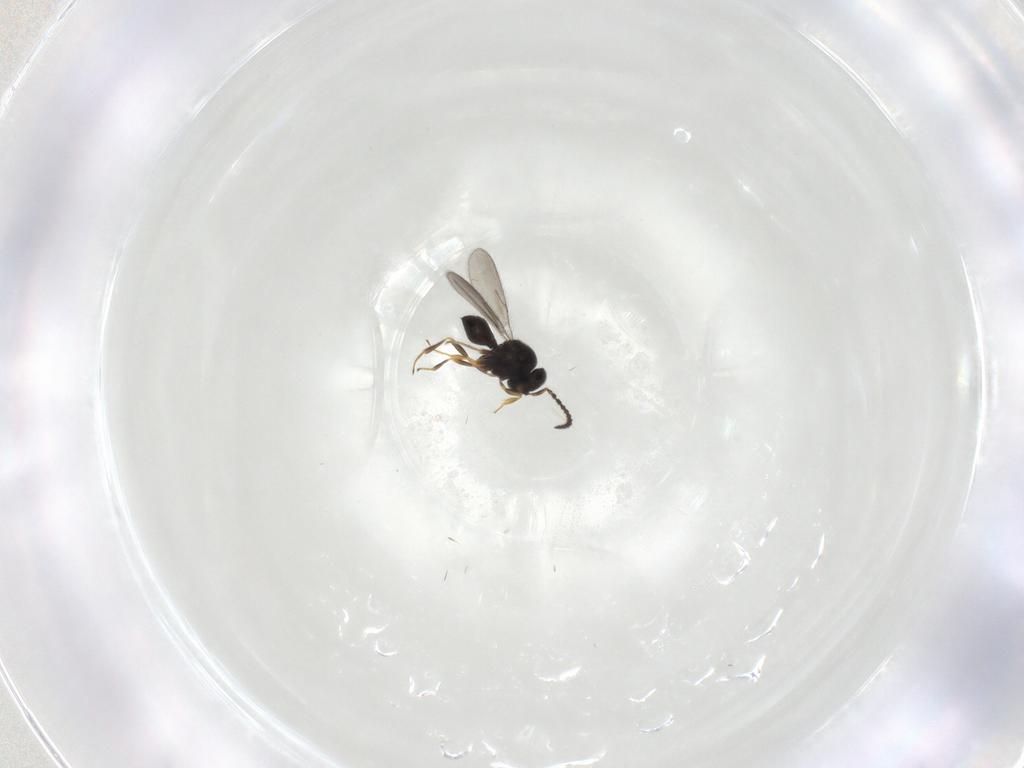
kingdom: Animalia
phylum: Arthropoda
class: Insecta
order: Hymenoptera
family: Scelionidae
